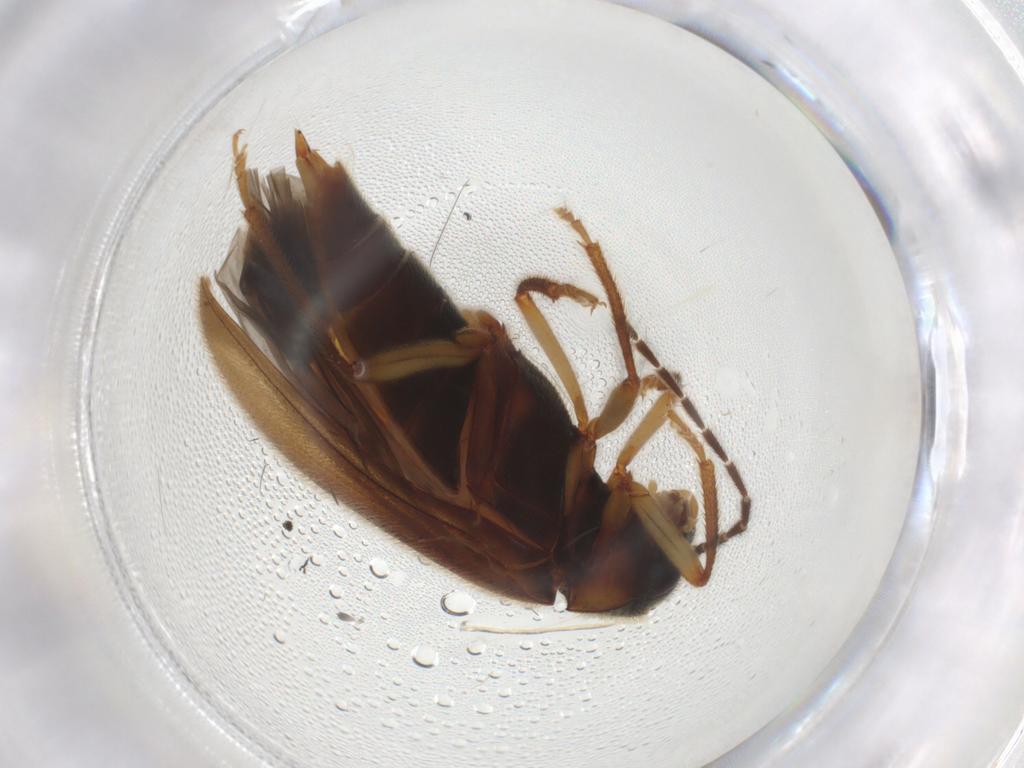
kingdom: Animalia
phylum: Arthropoda
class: Insecta
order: Coleoptera
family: Ptilodactylidae
